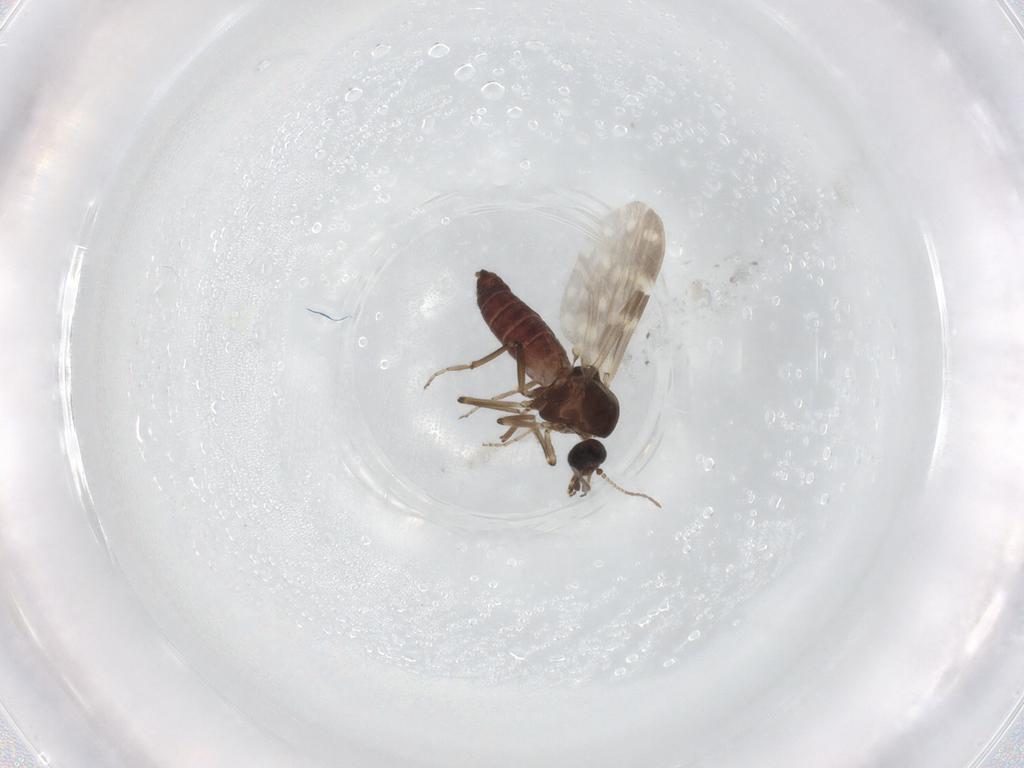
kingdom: Animalia
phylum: Arthropoda
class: Insecta
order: Diptera
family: Ceratopogonidae
